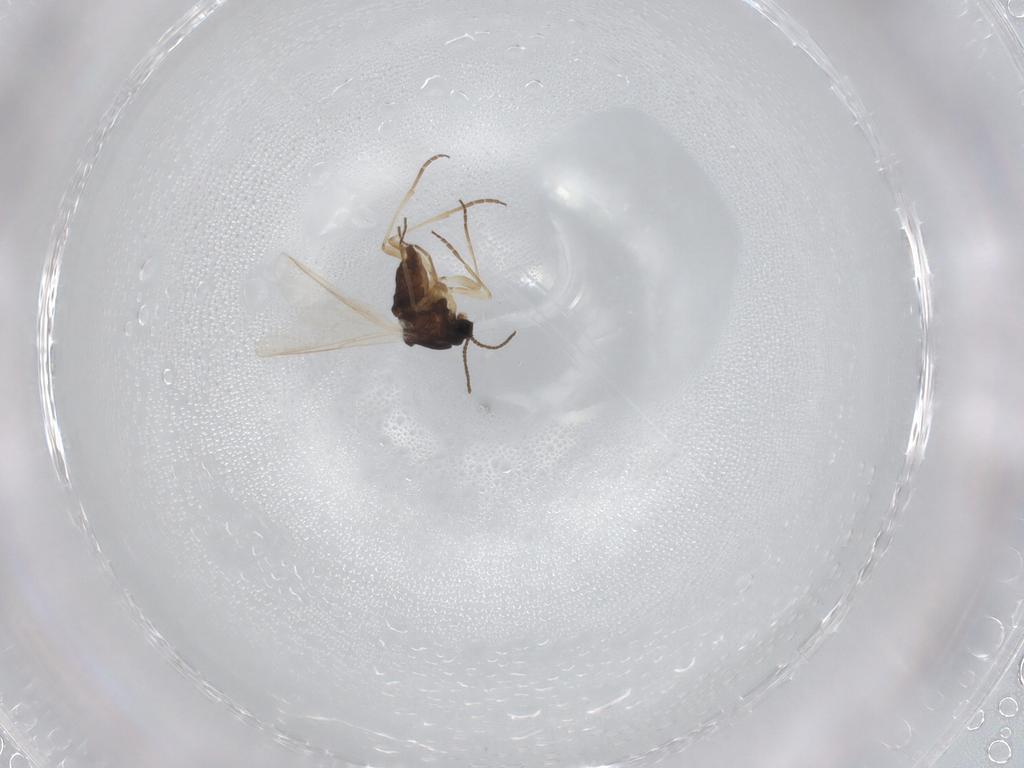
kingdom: Animalia
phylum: Arthropoda
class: Insecta
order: Diptera
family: Sciaridae
